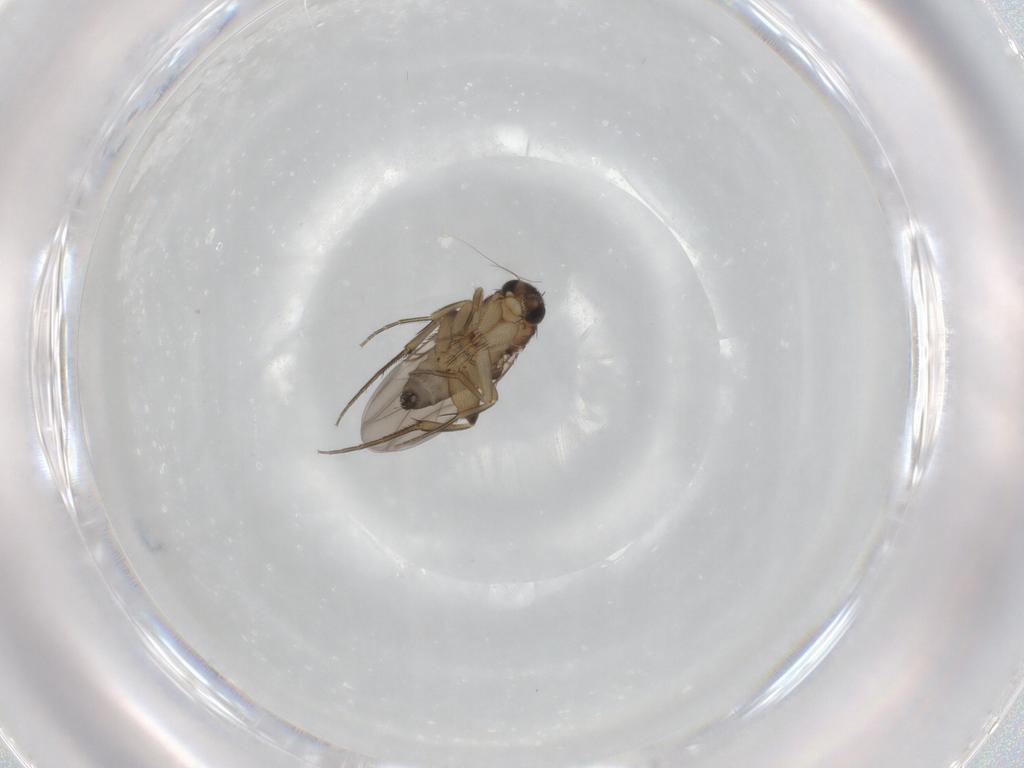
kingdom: Animalia
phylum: Arthropoda
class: Insecta
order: Diptera
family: Phoridae
